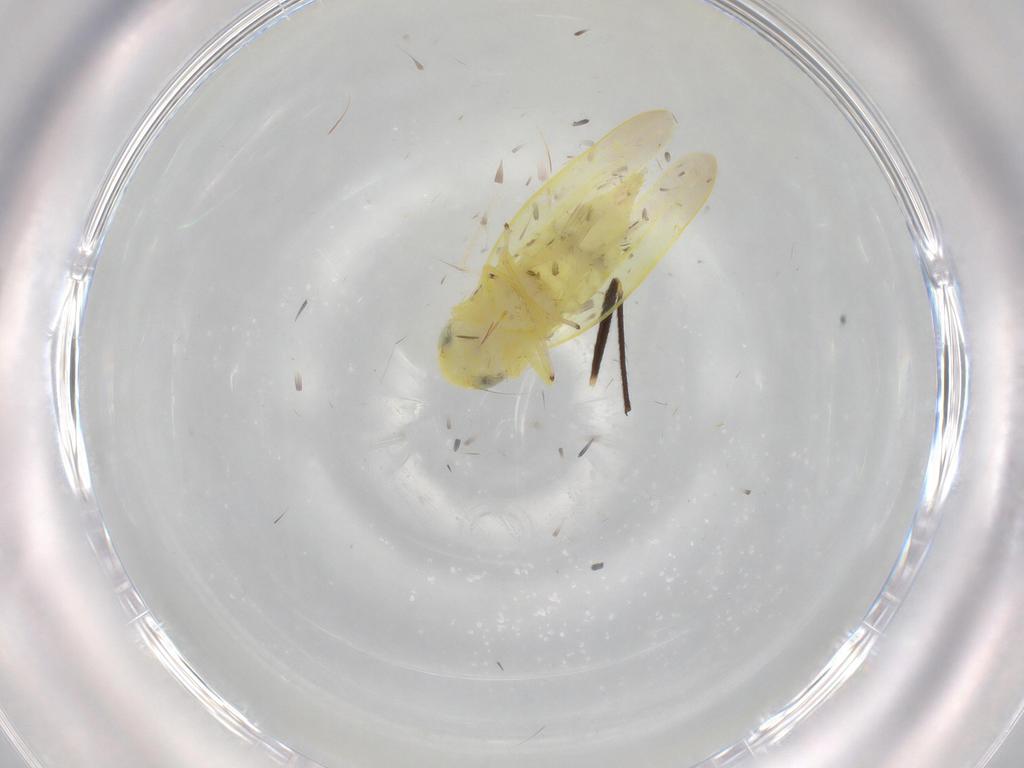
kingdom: Animalia
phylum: Arthropoda
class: Insecta
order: Hemiptera
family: Cicadellidae
